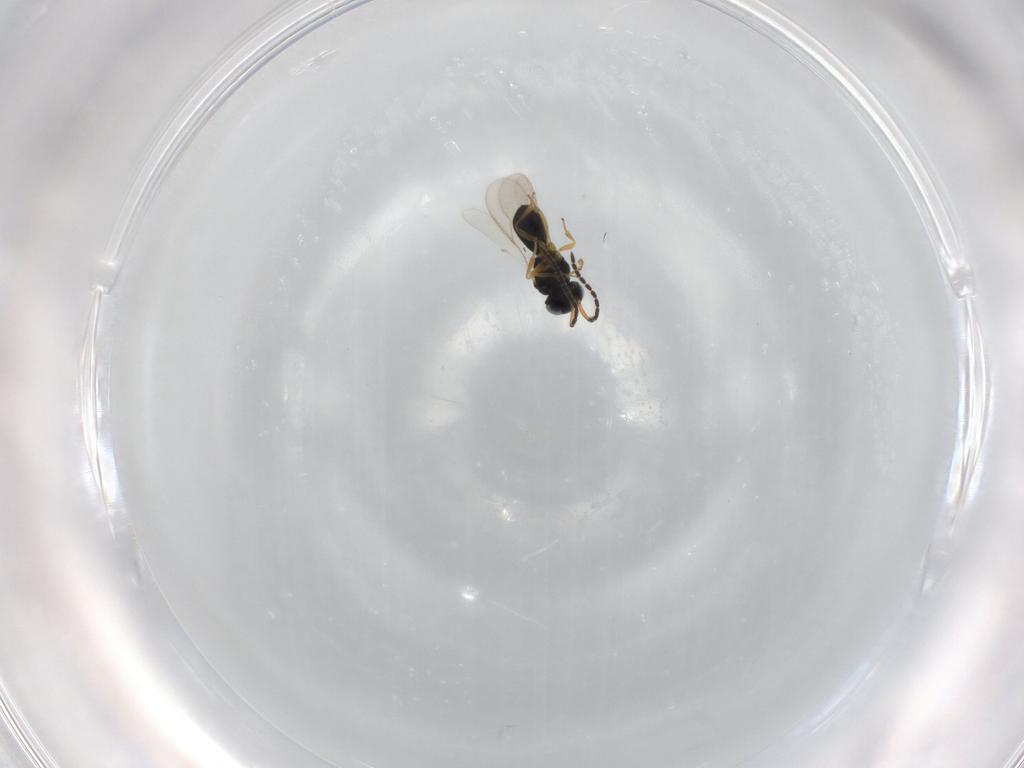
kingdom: Animalia
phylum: Arthropoda
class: Insecta
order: Hymenoptera
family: Scelionidae
